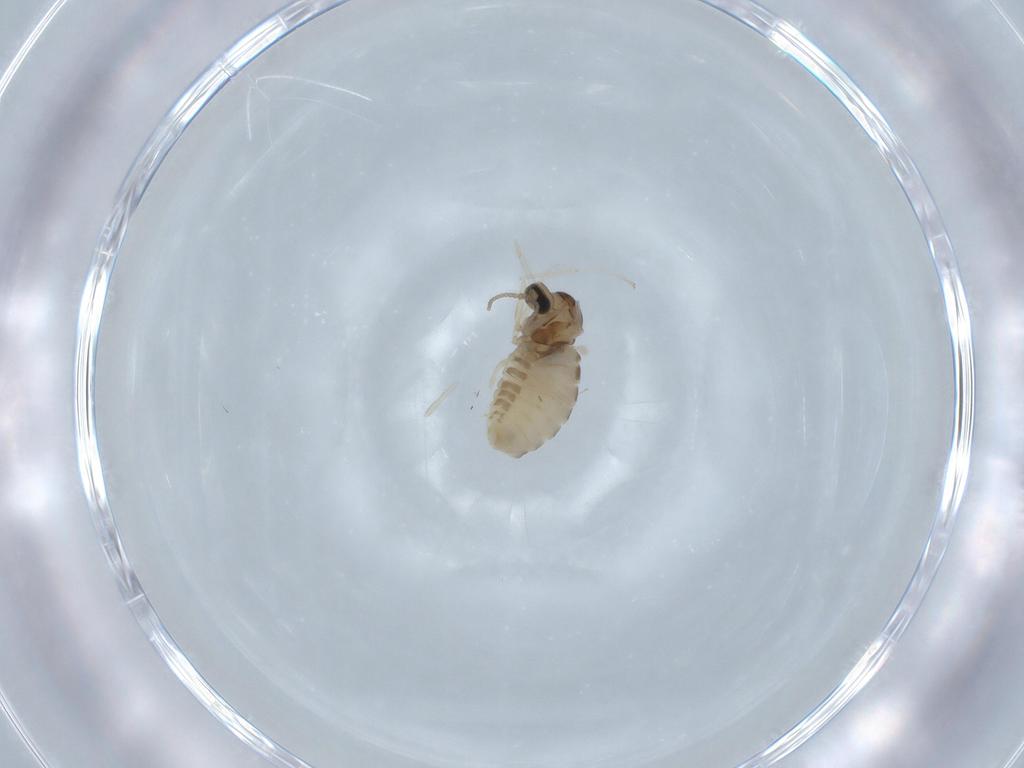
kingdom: Animalia
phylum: Arthropoda
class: Insecta
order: Diptera
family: Cecidomyiidae
